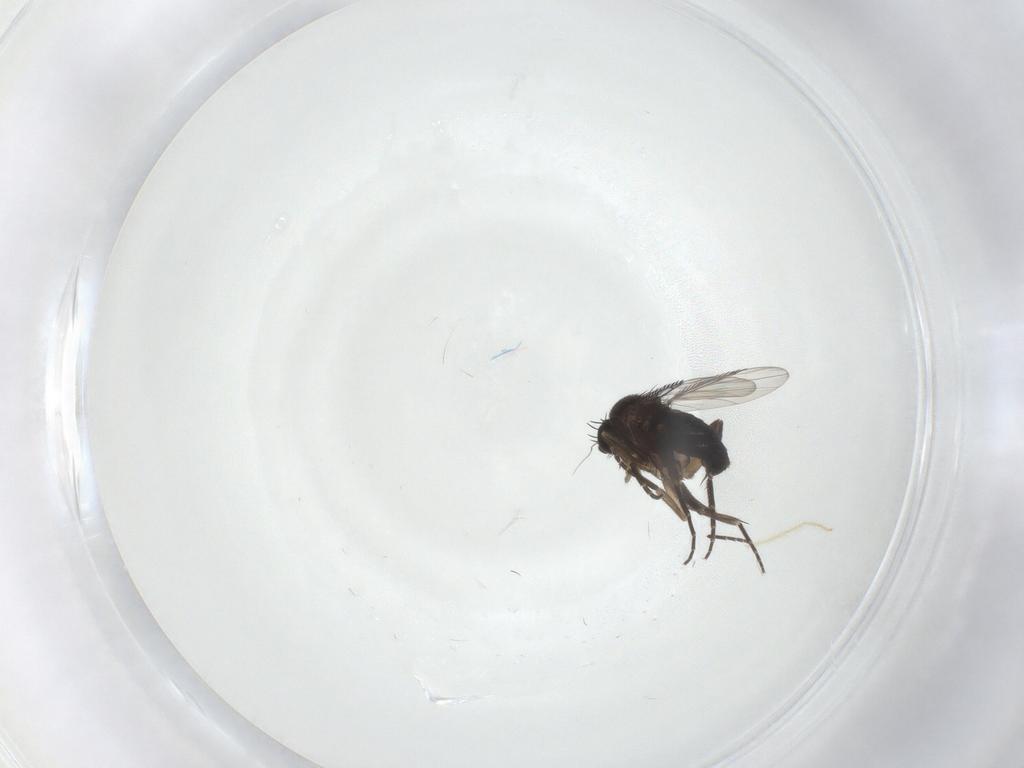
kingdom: Animalia
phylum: Arthropoda
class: Insecta
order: Diptera
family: Phoridae
